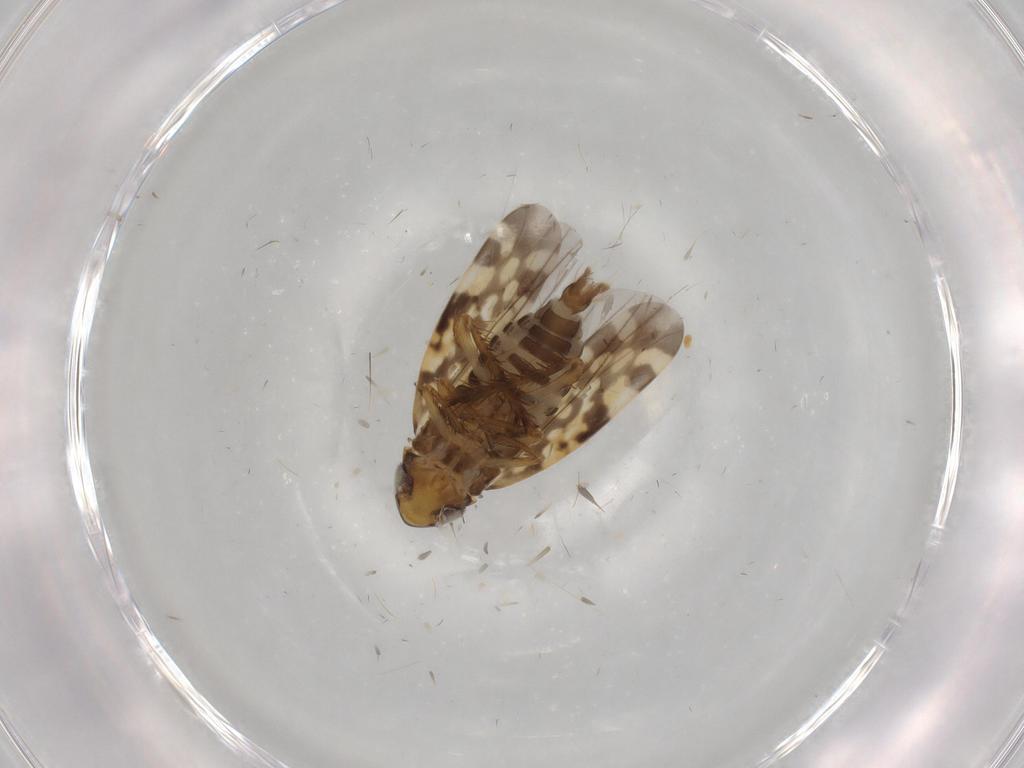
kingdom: Animalia
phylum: Arthropoda
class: Insecta
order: Hemiptera
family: Cicadellidae
